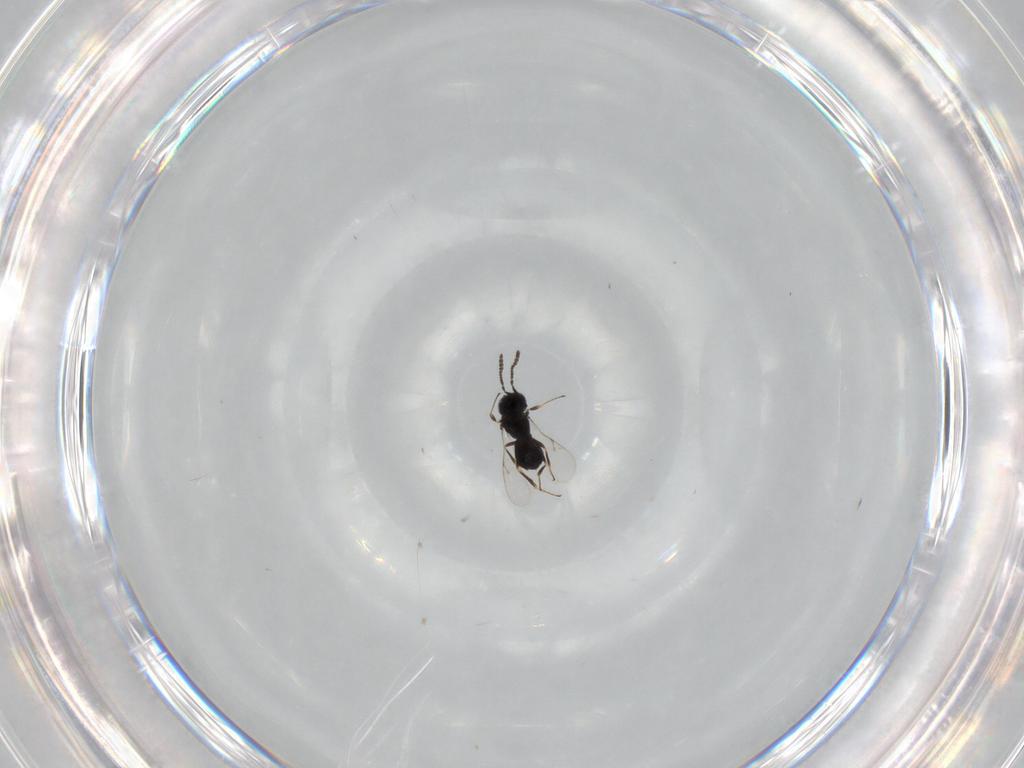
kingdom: Animalia
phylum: Arthropoda
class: Insecta
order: Hymenoptera
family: Scelionidae
